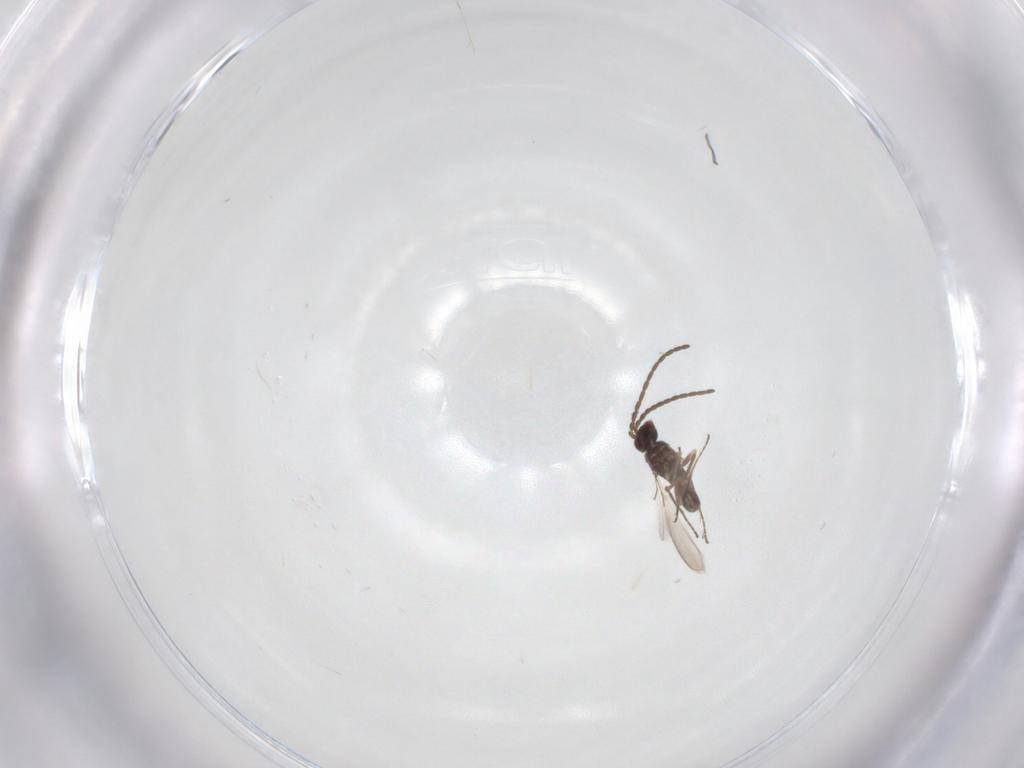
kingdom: Animalia
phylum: Arthropoda
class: Insecta
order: Hymenoptera
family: Mymaridae
